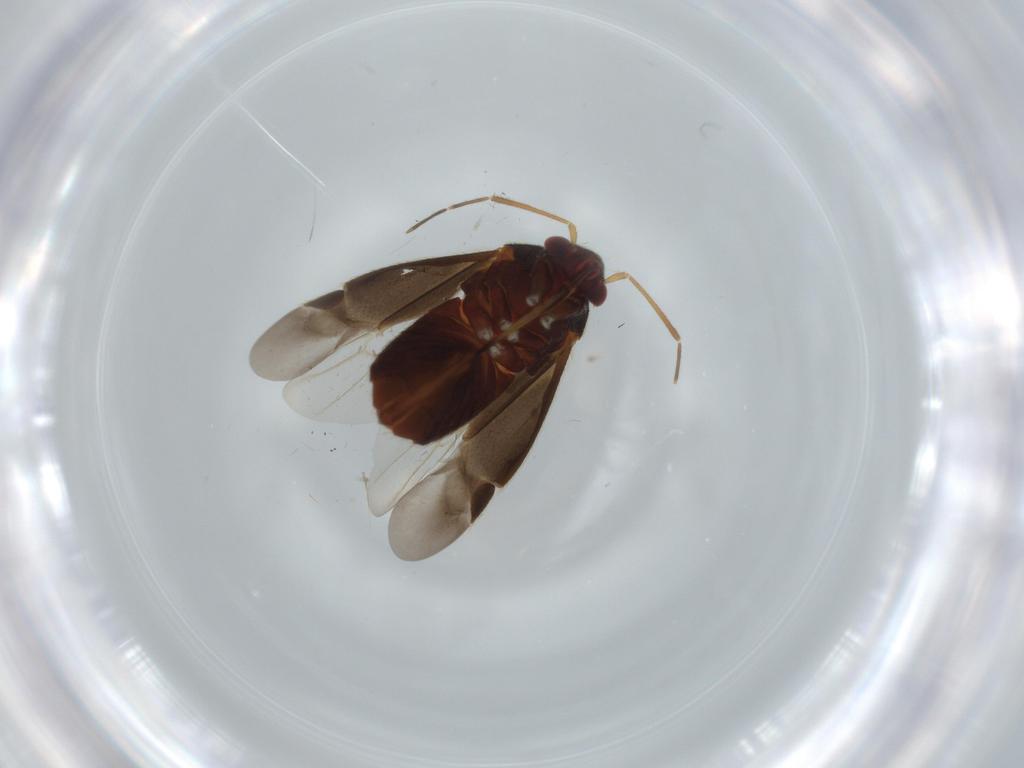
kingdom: Animalia
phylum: Arthropoda
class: Insecta
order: Hemiptera
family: Miridae
